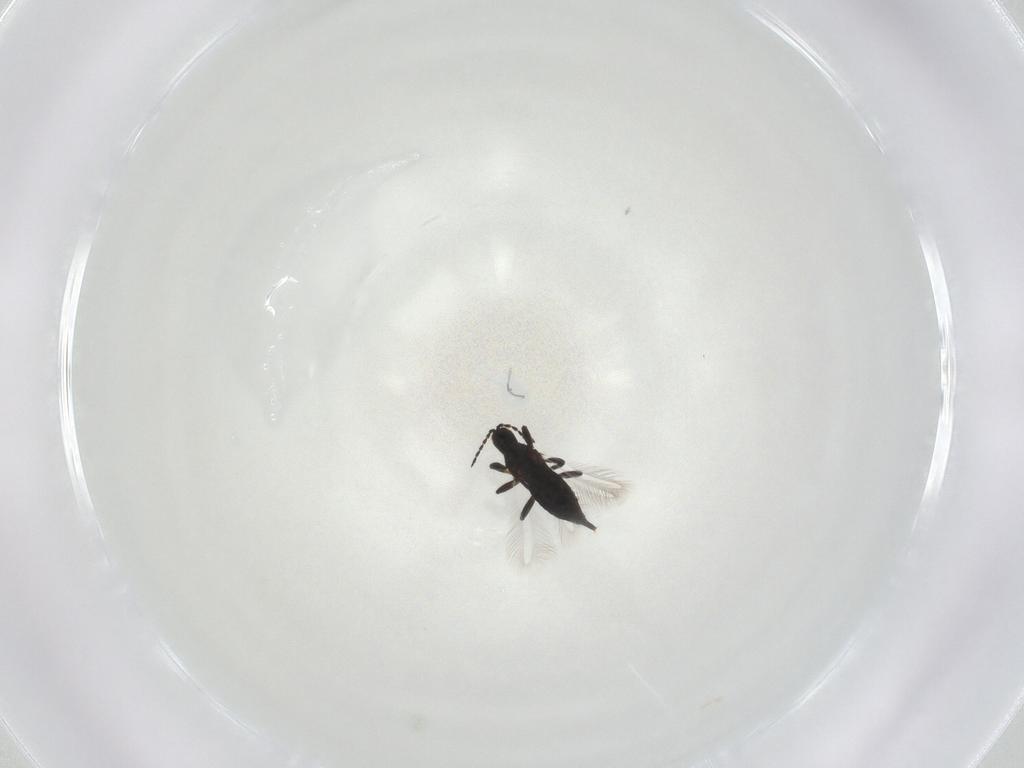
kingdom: Animalia
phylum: Arthropoda
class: Insecta
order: Thysanoptera
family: Phlaeothripidae
